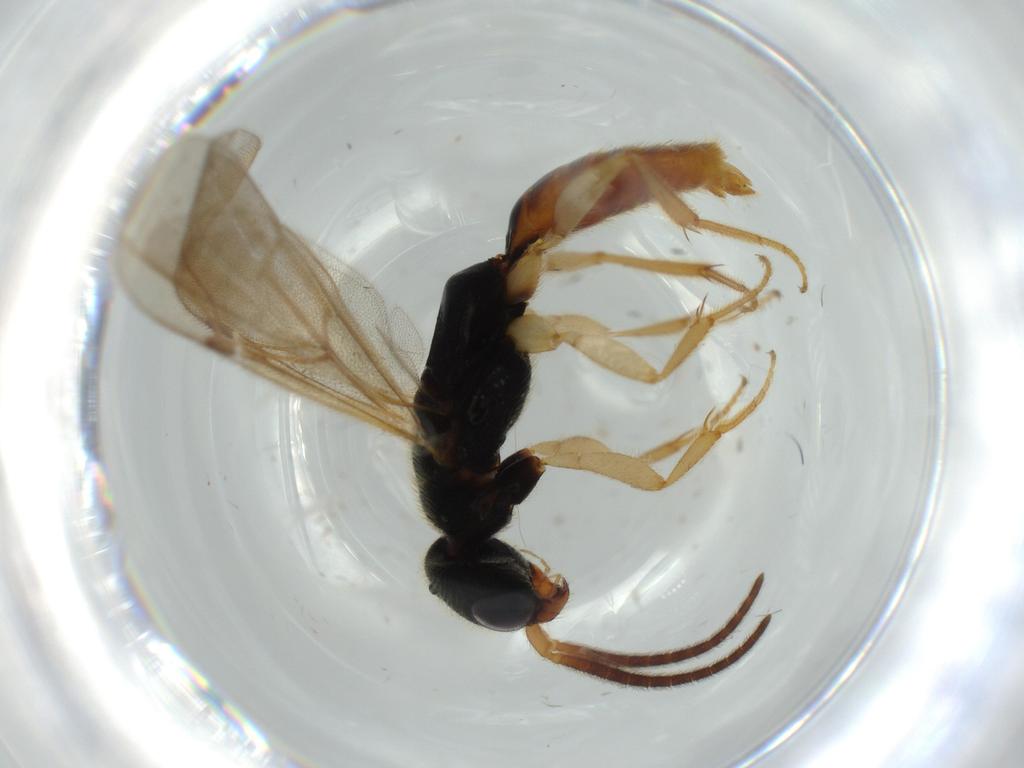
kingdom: Animalia
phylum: Arthropoda
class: Insecta
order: Hymenoptera
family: Bethylidae
